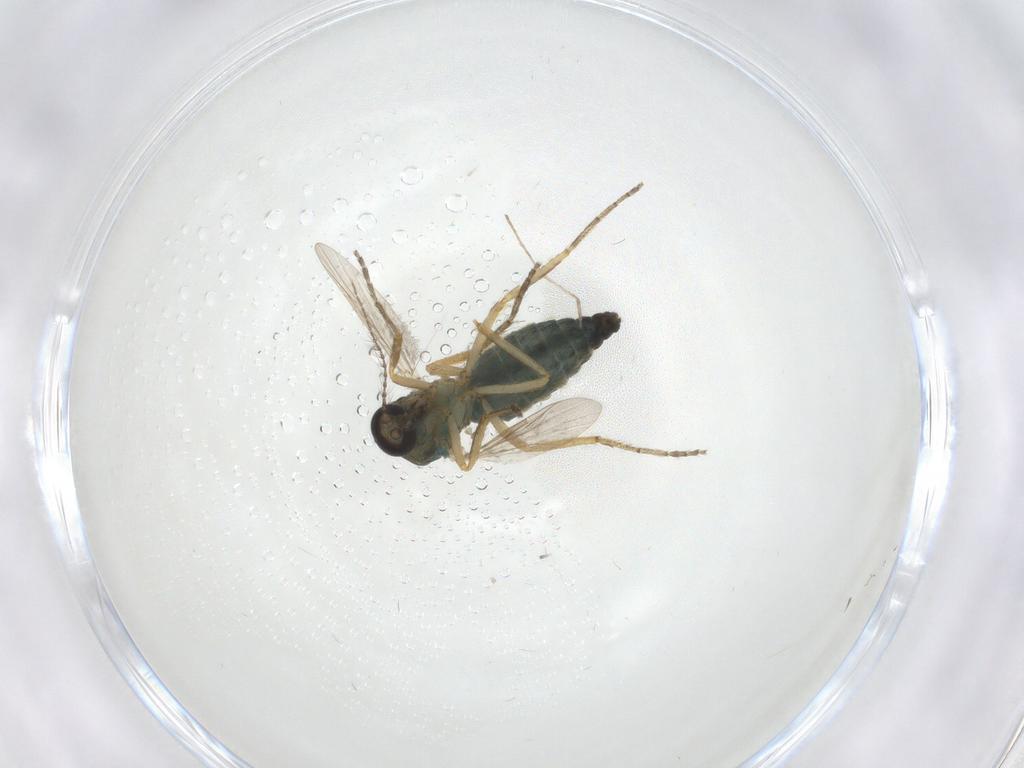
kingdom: Animalia
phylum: Arthropoda
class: Insecta
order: Diptera
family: Ceratopogonidae
